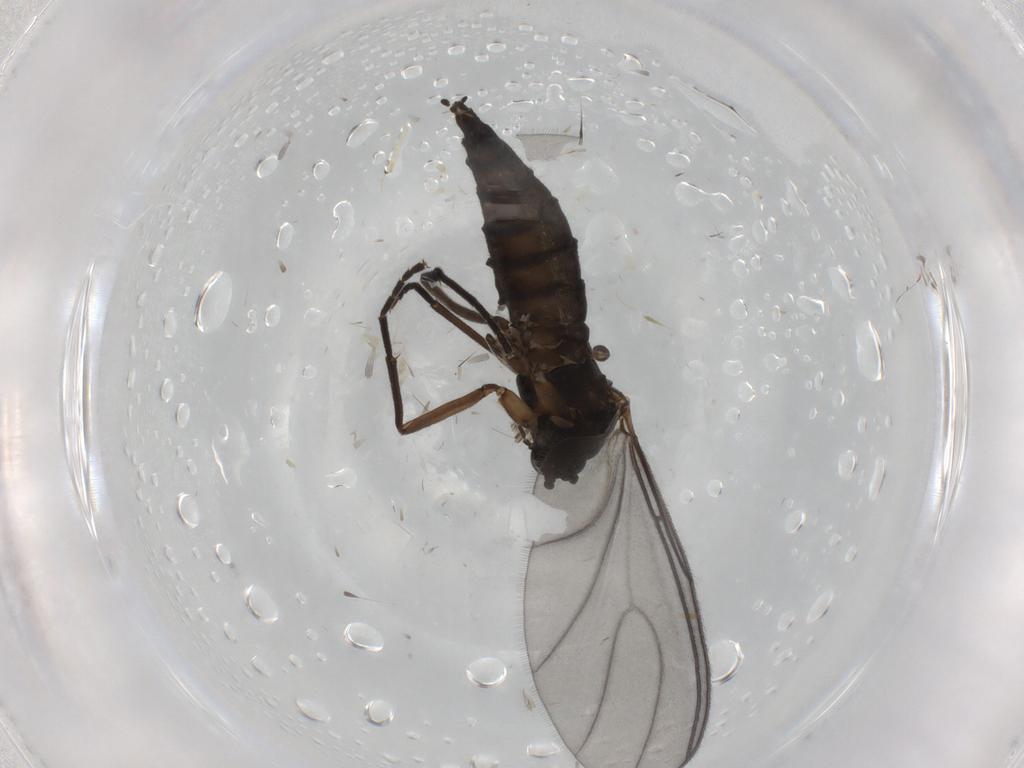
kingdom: Animalia
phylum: Arthropoda
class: Insecta
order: Diptera
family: Sciaridae
